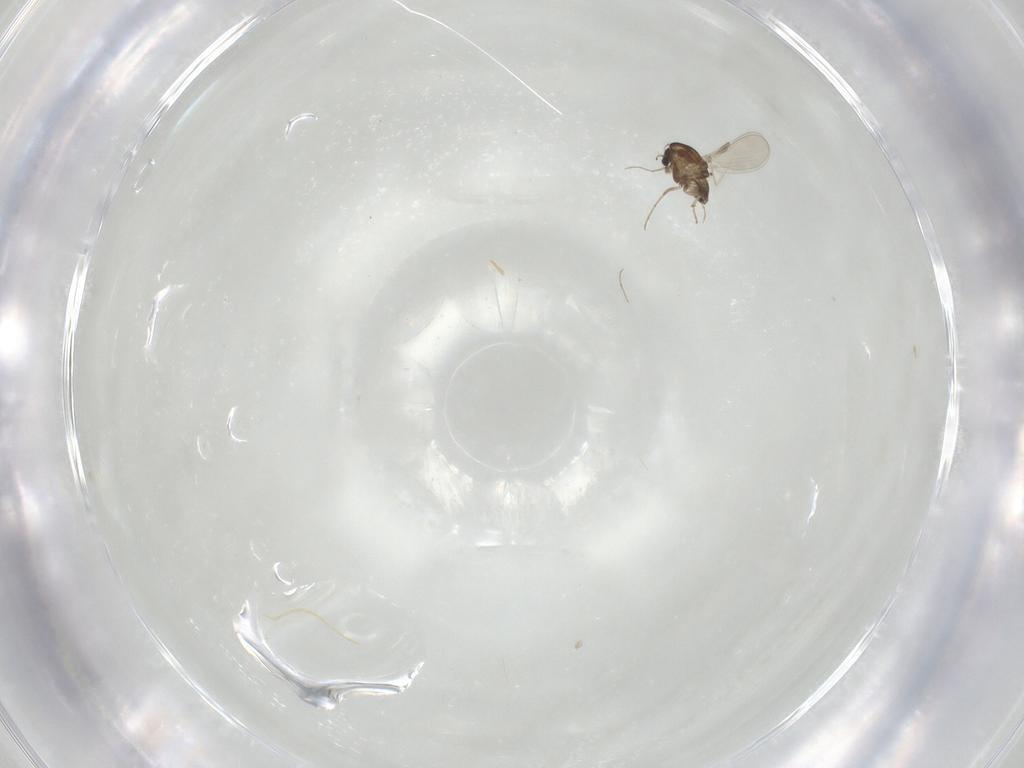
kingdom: Animalia
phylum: Arthropoda
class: Insecta
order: Diptera
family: Chironomidae
